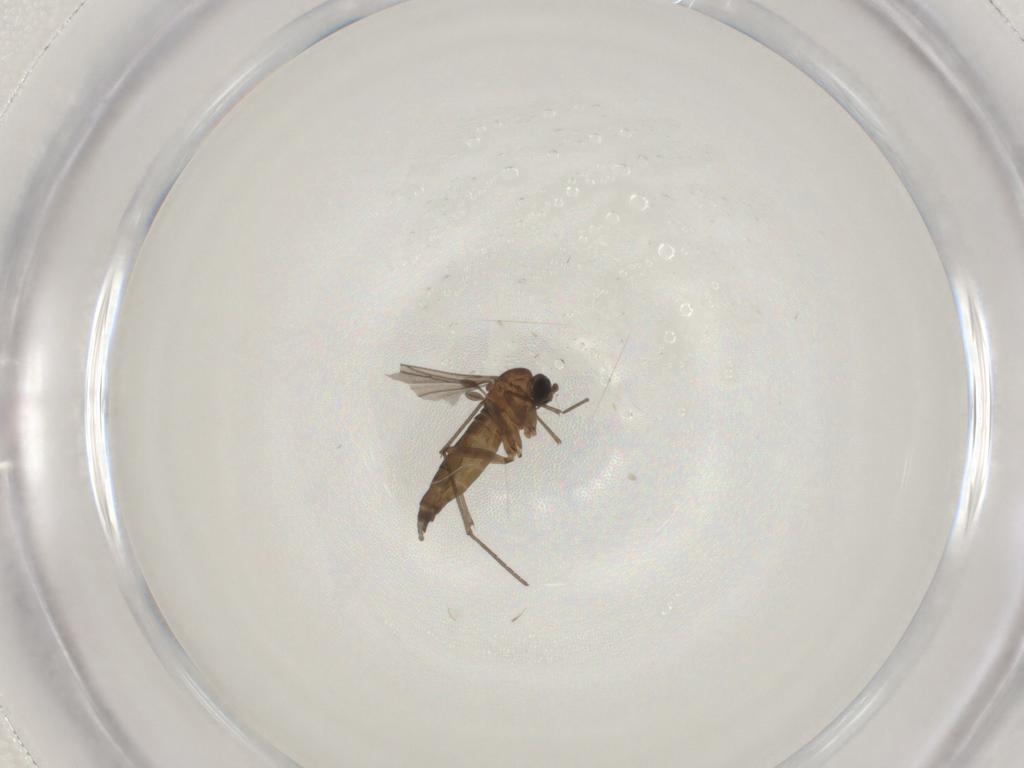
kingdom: Animalia
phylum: Arthropoda
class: Insecta
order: Diptera
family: Sciaridae
